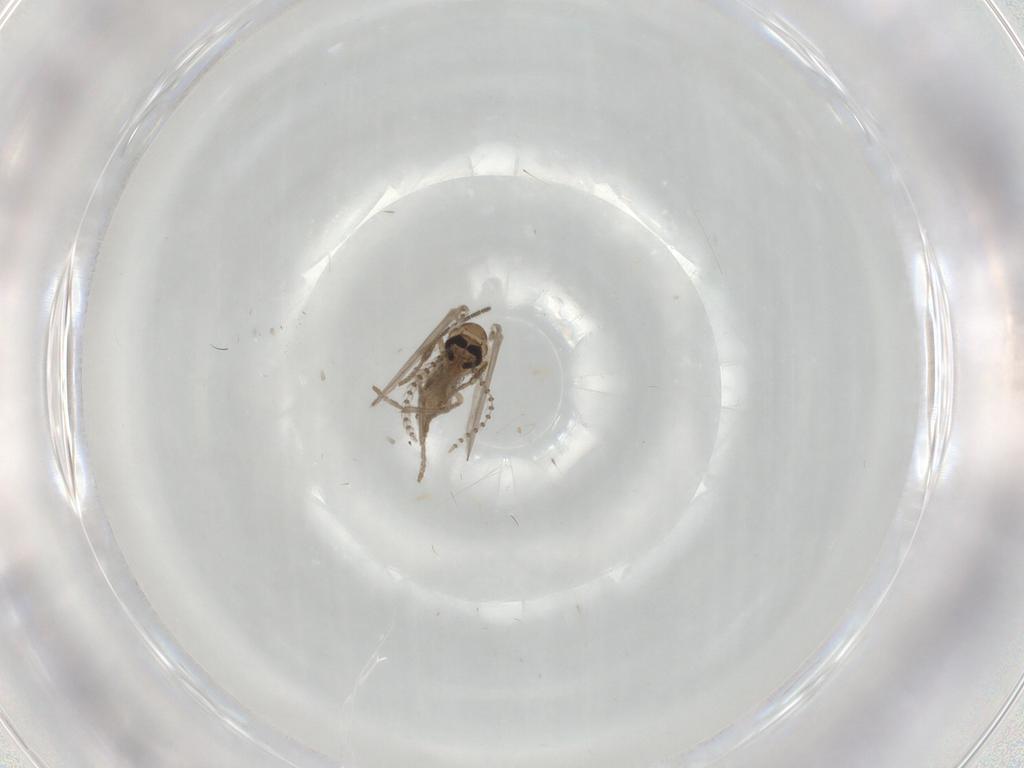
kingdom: Animalia
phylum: Arthropoda
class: Insecta
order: Diptera
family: Psychodidae
